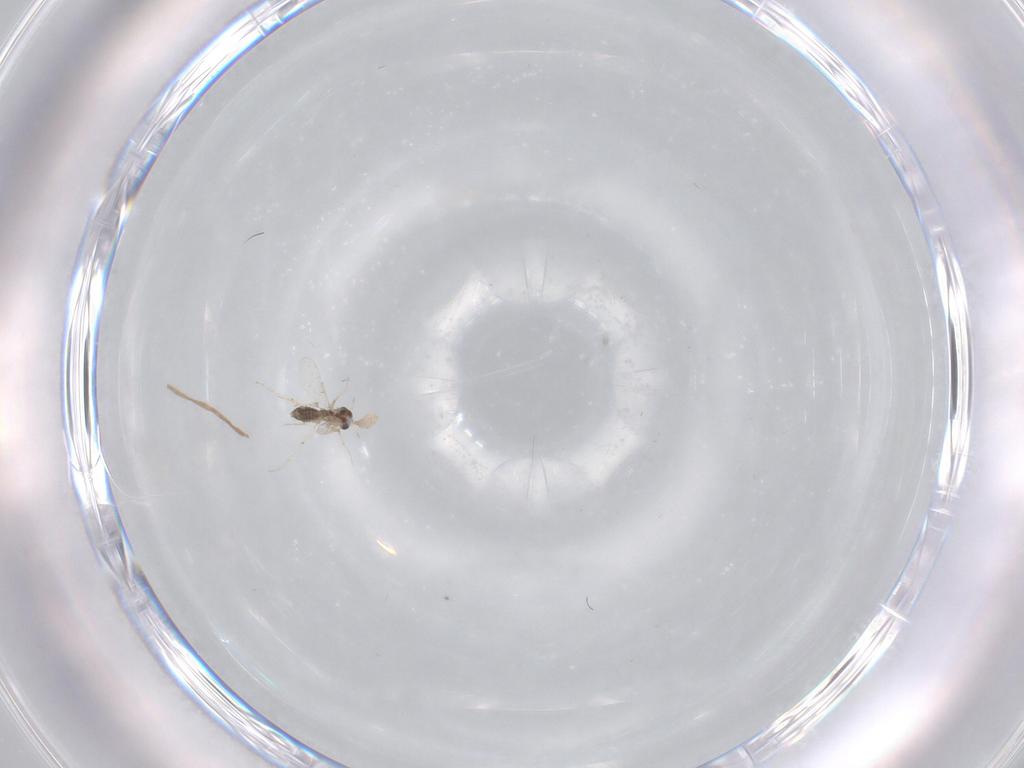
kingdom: Animalia
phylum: Arthropoda
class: Insecta
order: Diptera
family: Cecidomyiidae
